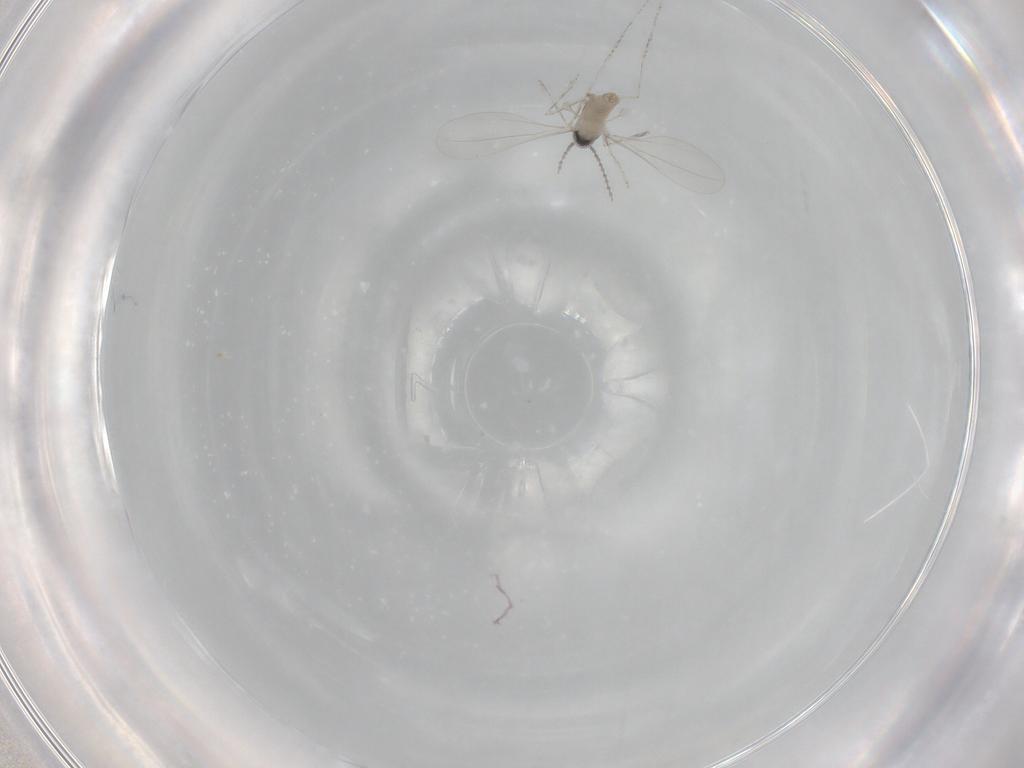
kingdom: Animalia
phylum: Arthropoda
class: Insecta
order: Diptera
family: Cecidomyiidae
